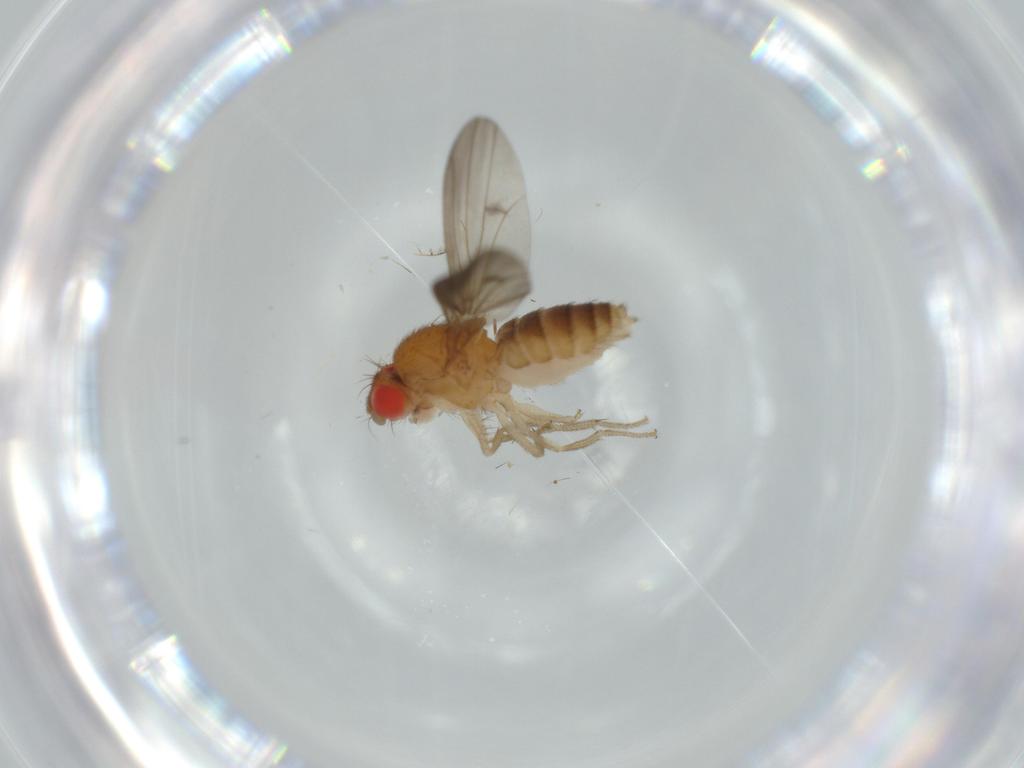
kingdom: Animalia
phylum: Arthropoda
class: Insecta
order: Diptera
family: Drosophilidae
